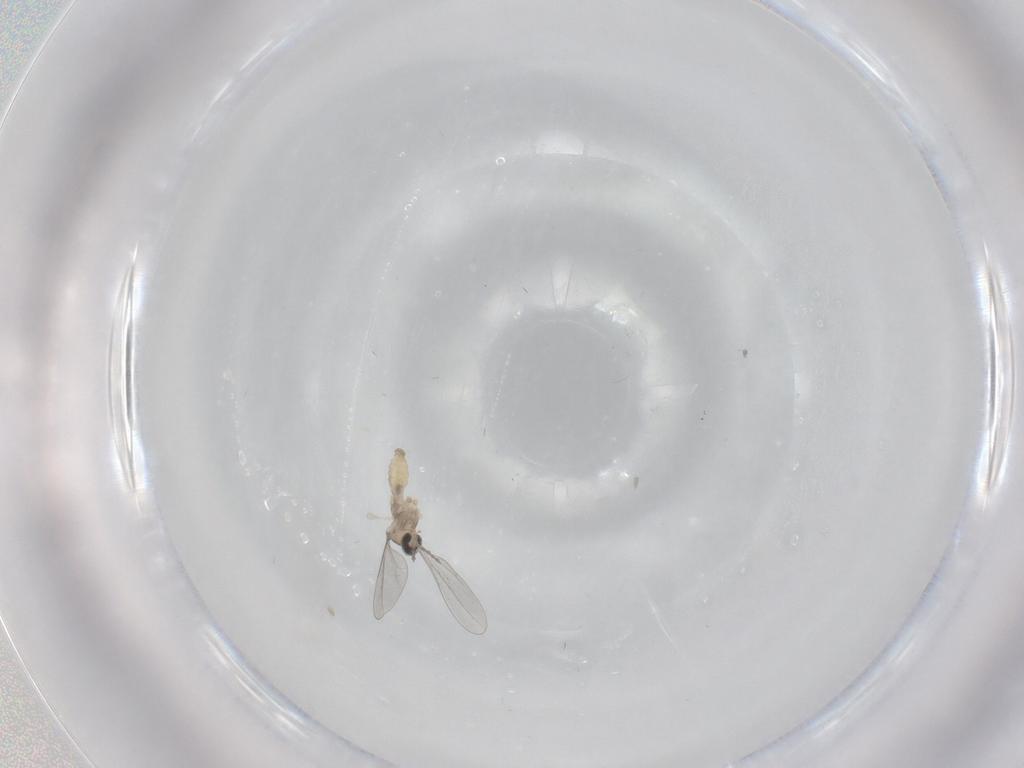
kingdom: Animalia
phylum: Arthropoda
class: Insecta
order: Diptera
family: Cecidomyiidae
